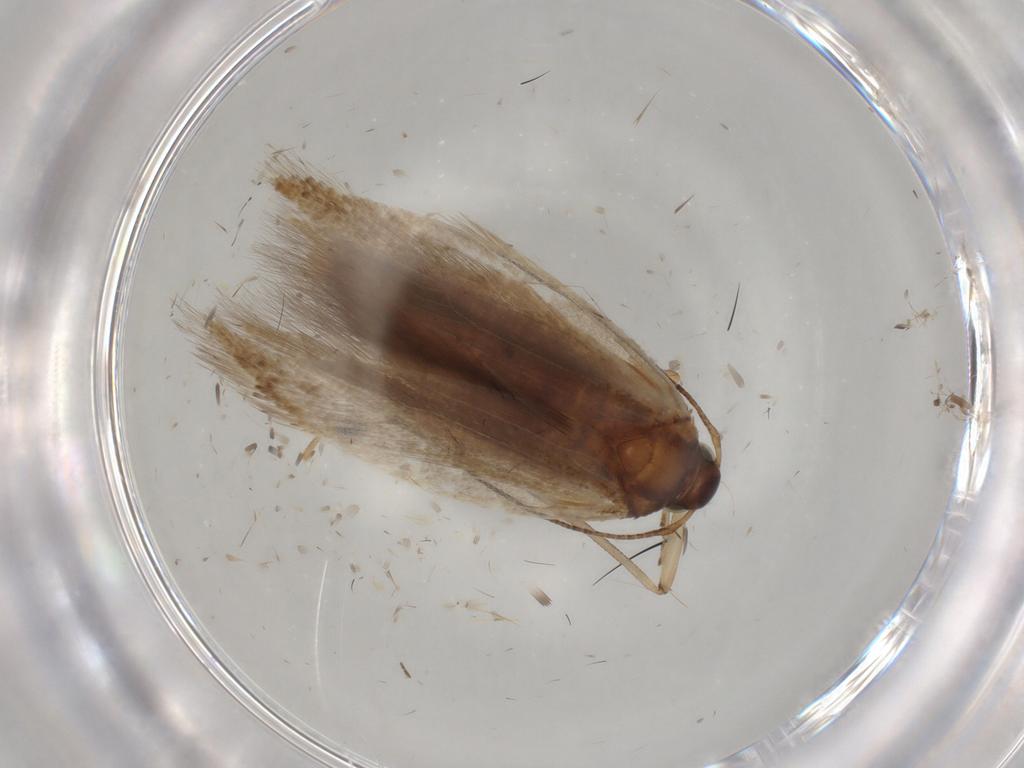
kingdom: Animalia
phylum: Arthropoda
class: Insecta
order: Lepidoptera
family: Gelechiidae
